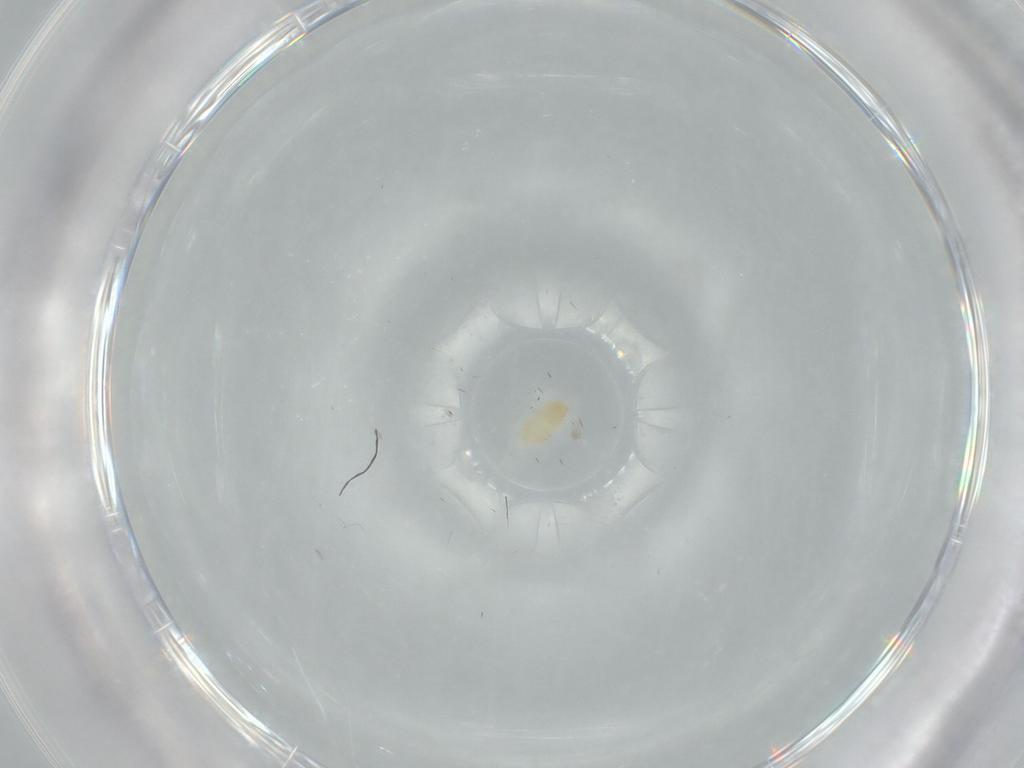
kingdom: Animalia
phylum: Arthropoda
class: Arachnida
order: Trombidiformes
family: Eupodidae
